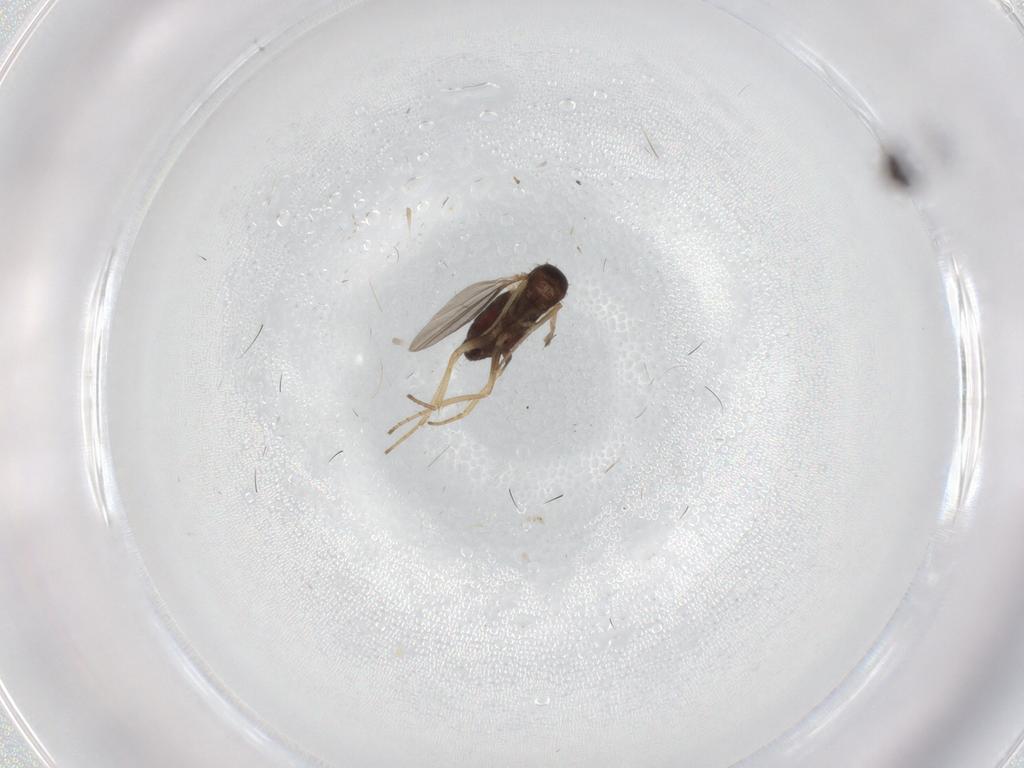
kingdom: Animalia
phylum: Arthropoda
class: Insecta
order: Diptera
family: Cecidomyiidae
